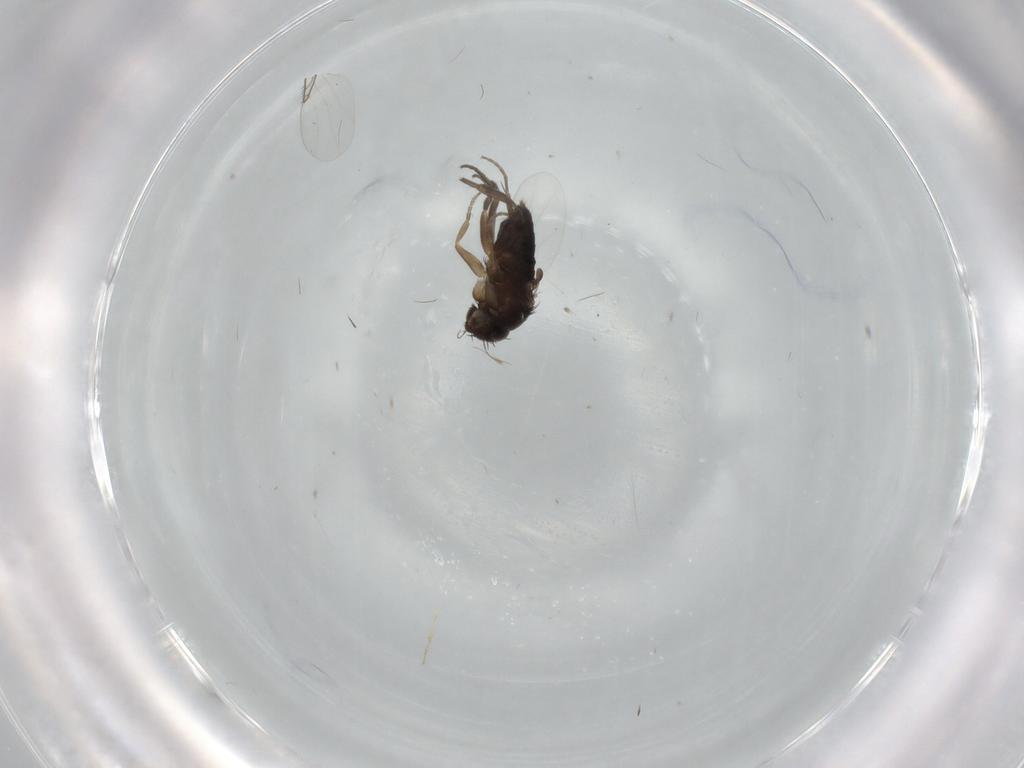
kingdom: Animalia
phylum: Arthropoda
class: Insecta
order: Diptera
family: Phoridae
